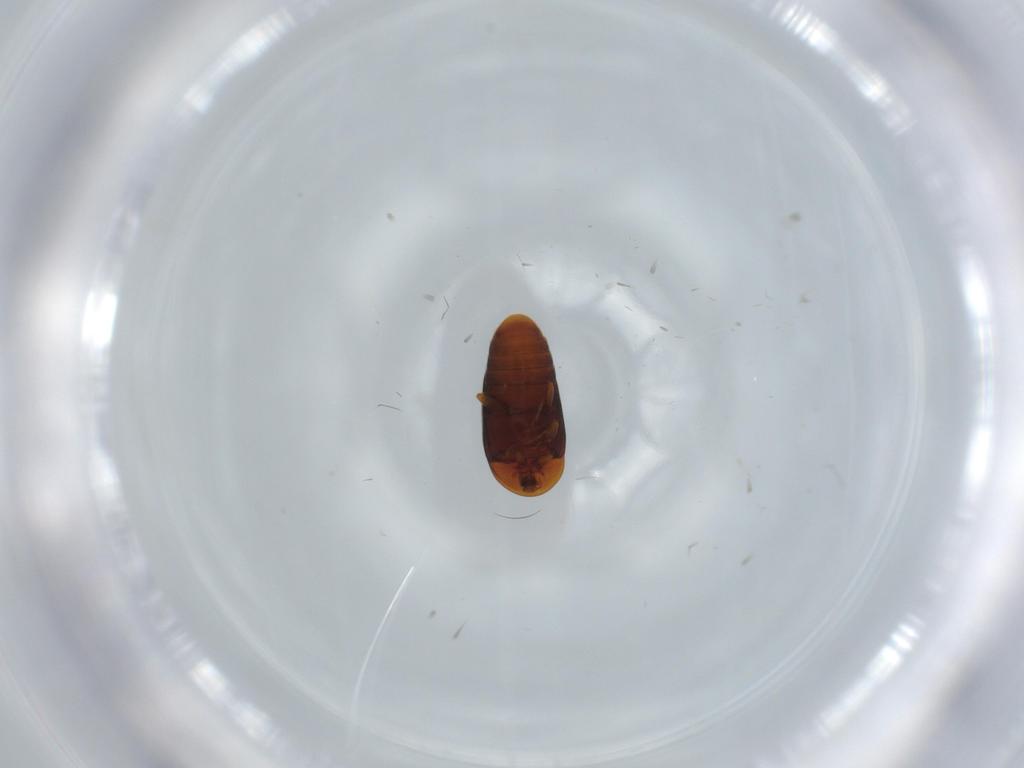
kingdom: Animalia
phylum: Arthropoda
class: Insecta
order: Coleoptera
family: Corylophidae
